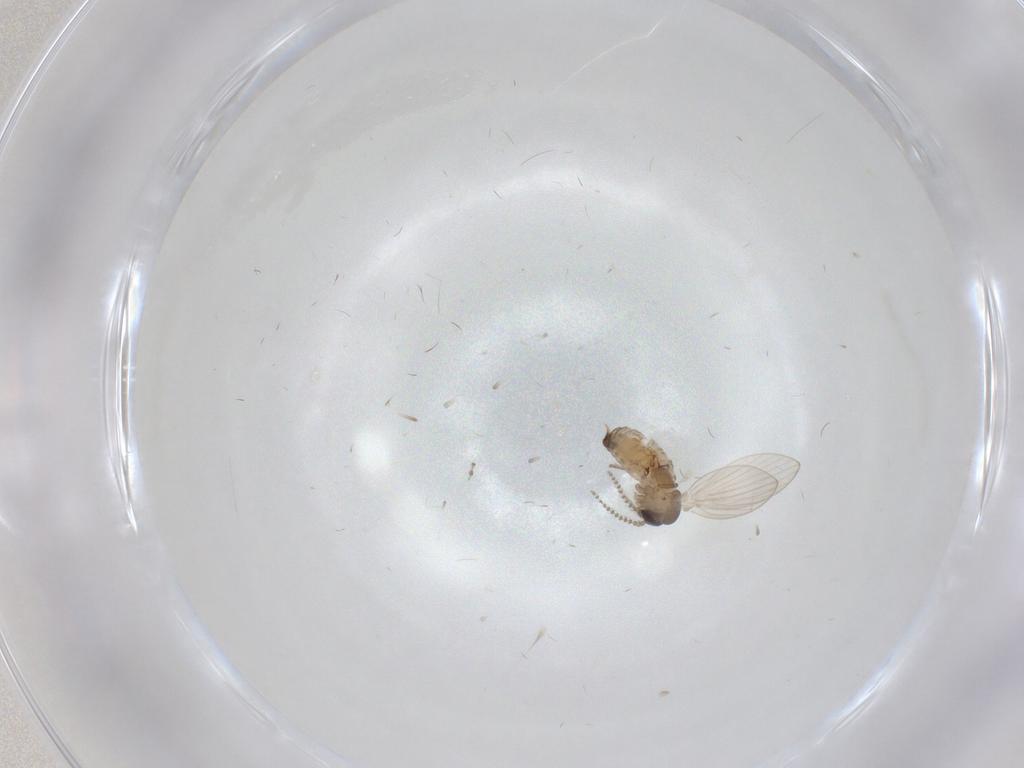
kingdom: Animalia
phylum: Arthropoda
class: Insecta
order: Diptera
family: Psychodidae
